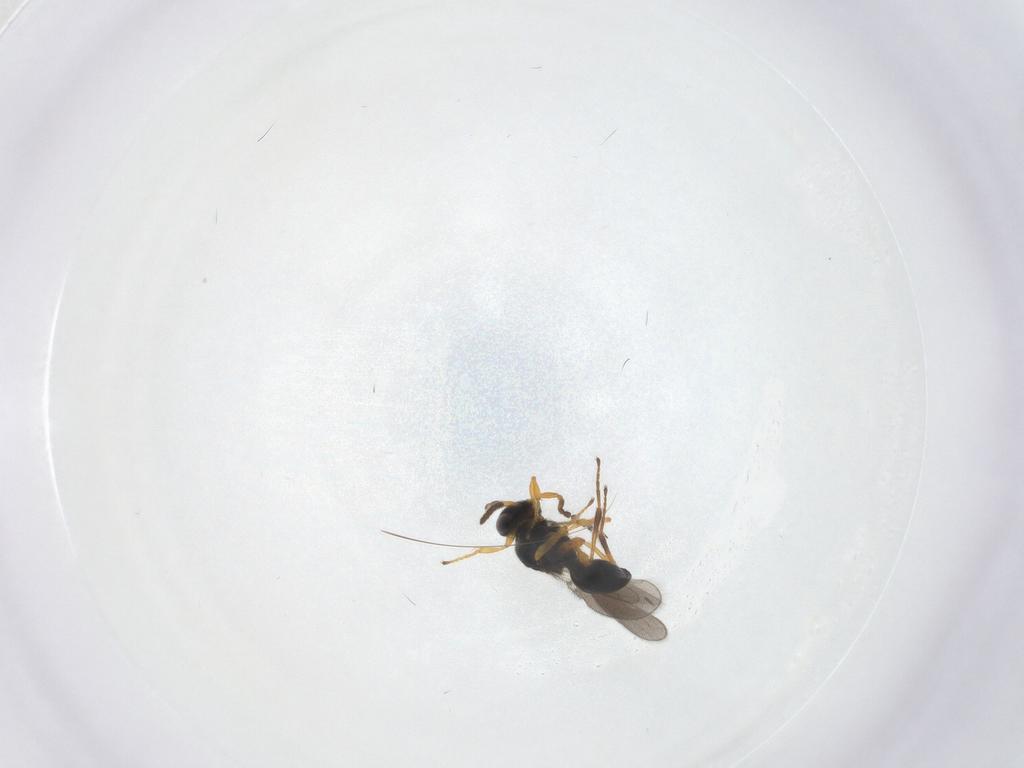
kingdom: Animalia
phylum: Arthropoda
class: Insecta
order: Hymenoptera
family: Platygastridae
